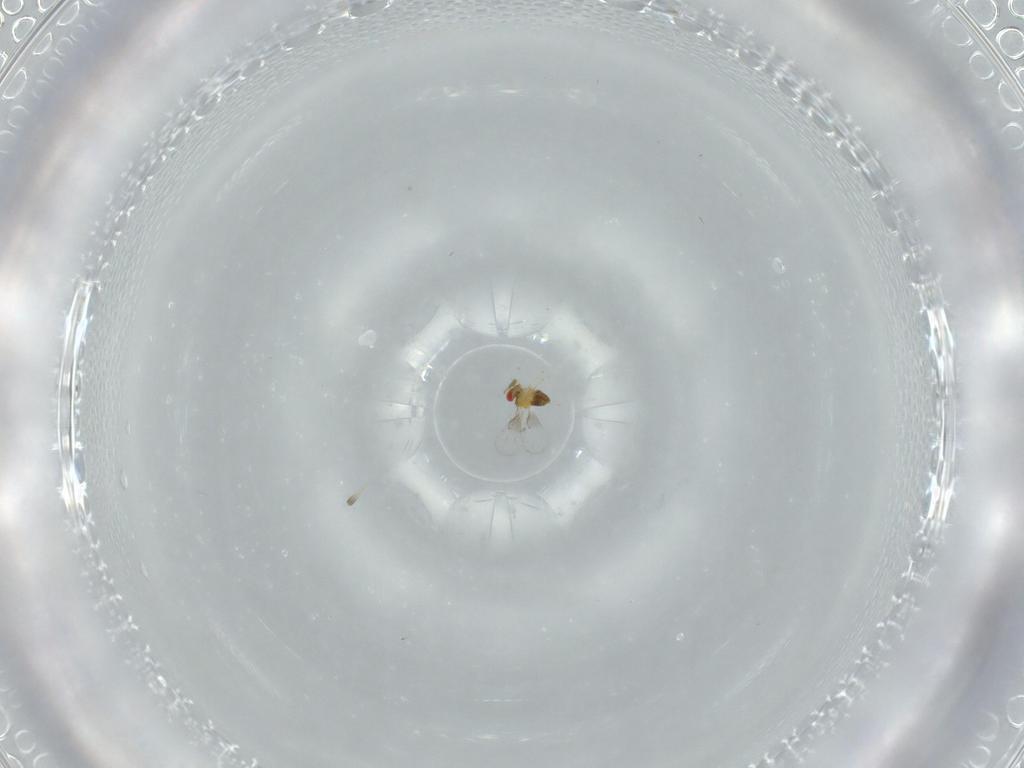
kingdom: Animalia
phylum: Arthropoda
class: Insecta
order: Hymenoptera
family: Trichogrammatidae
